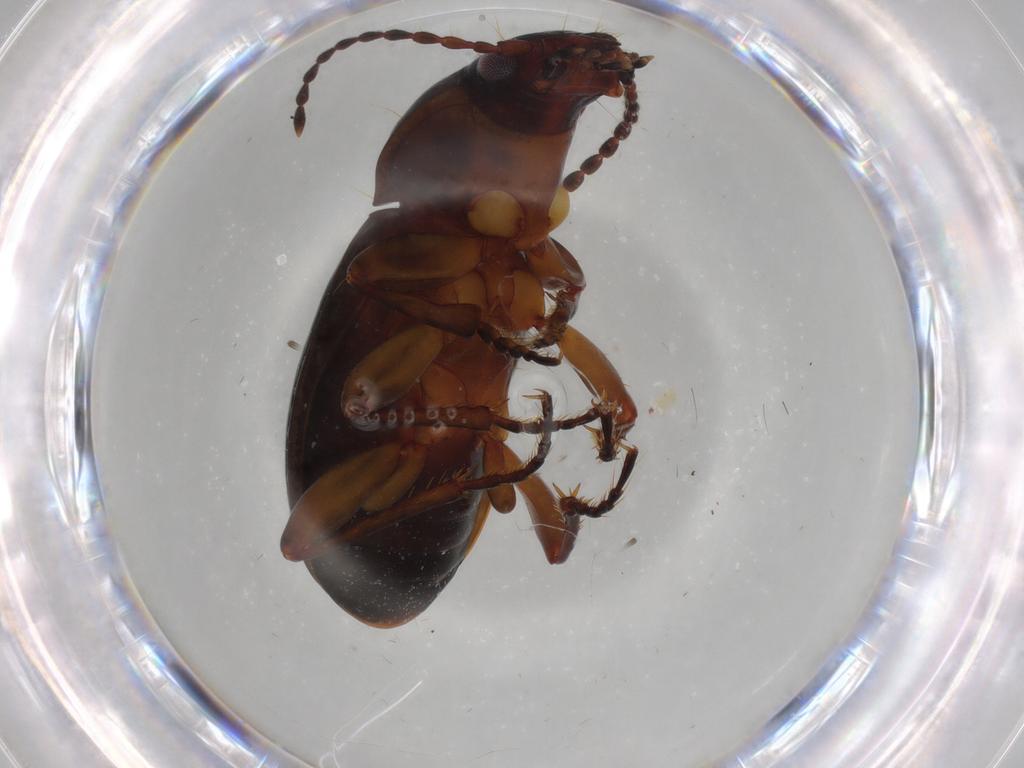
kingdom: Animalia
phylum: Arthropoda
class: Insecta
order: Coleoptera
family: Carabidae
